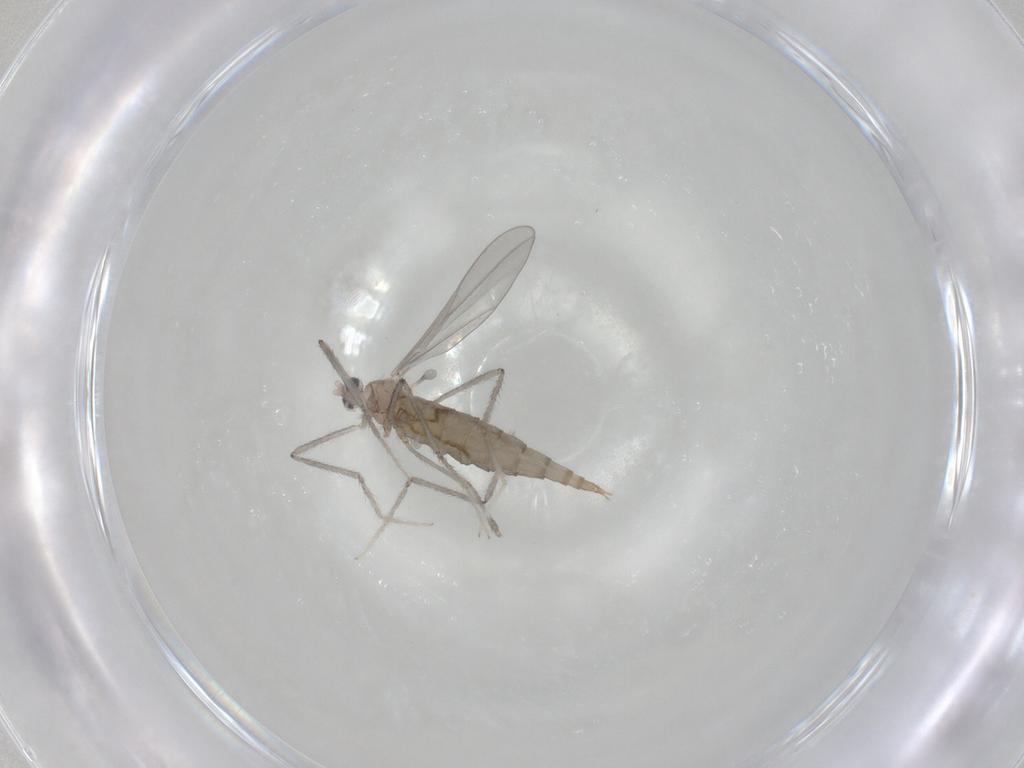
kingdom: Animalia
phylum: Arthropoda
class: Insecta
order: Diptera
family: Cecidomyiidae
